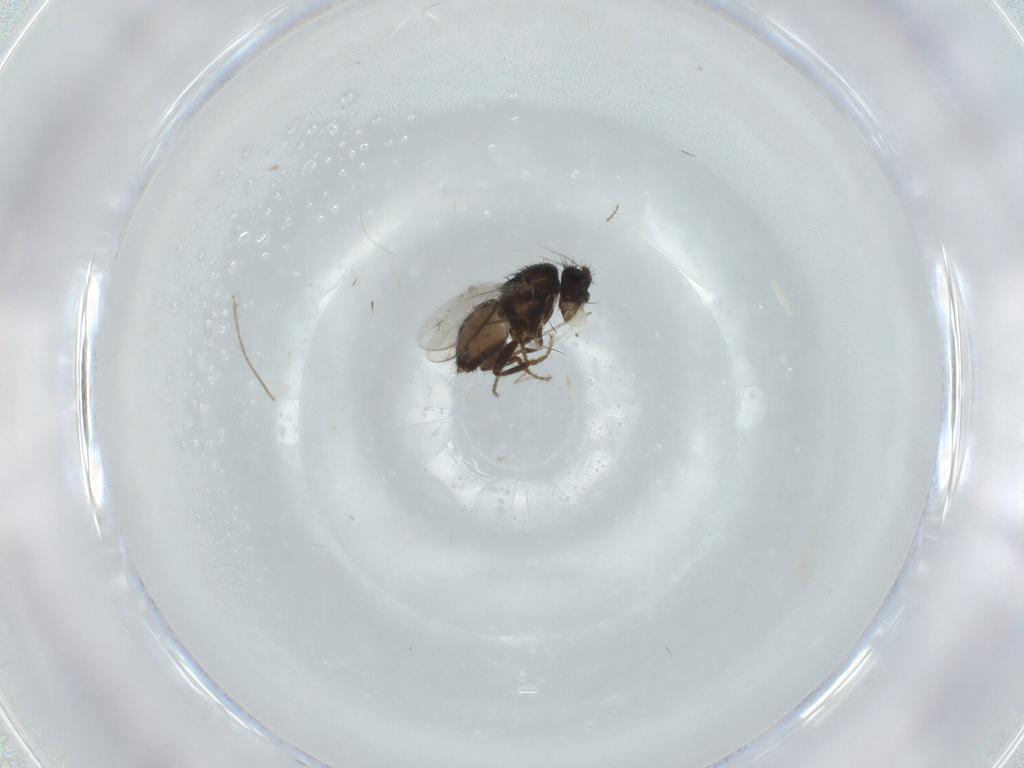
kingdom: Animalia
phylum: Arthropoda
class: Insecta
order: Diptera
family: Sphaeroceridae
